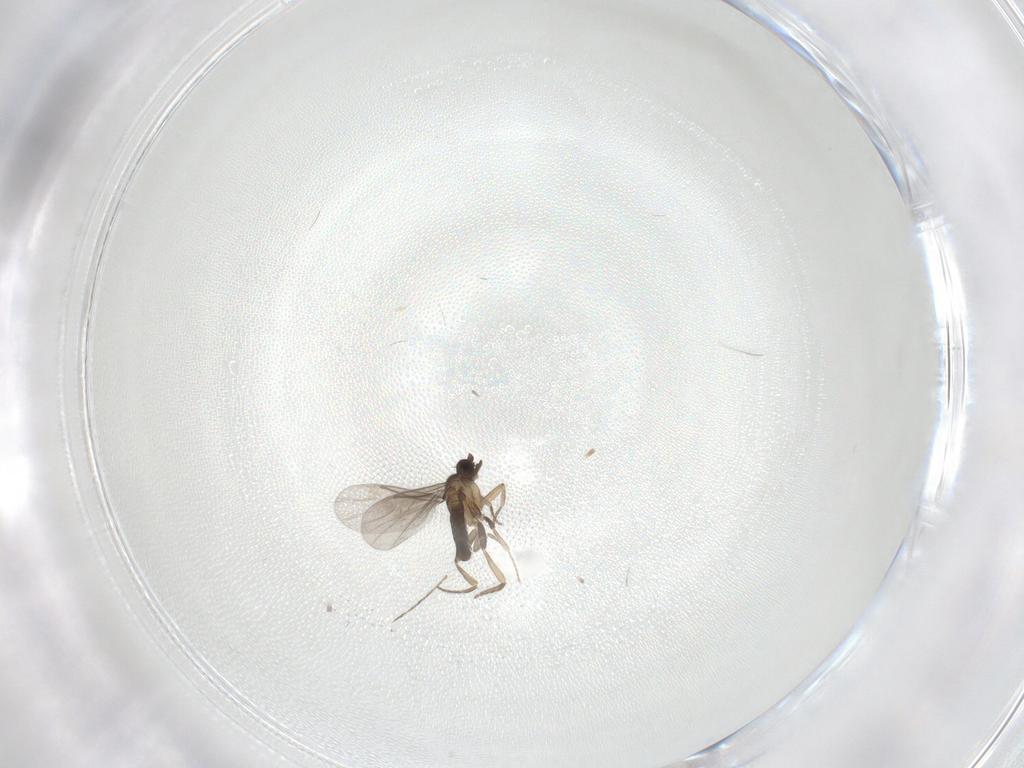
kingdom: Animalia
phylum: Arthropoda
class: Insecta
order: Diptera
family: Cecidomyiidae
